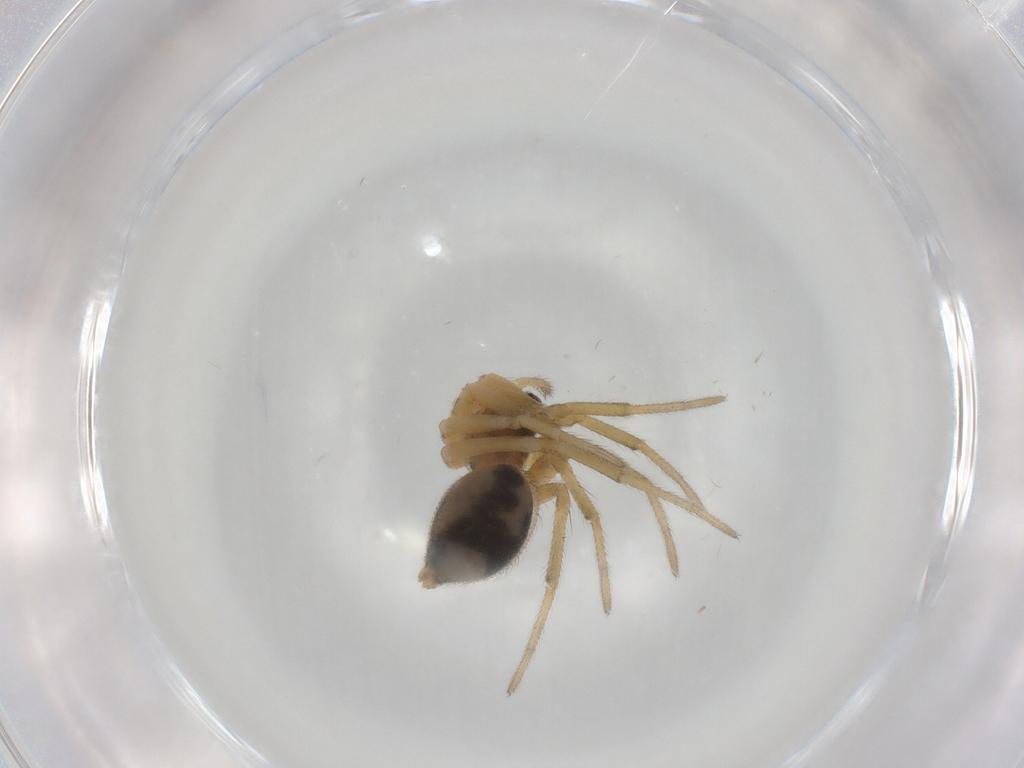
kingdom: Animalia
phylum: Arthropoda
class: Arachnida
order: Araneae
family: Linyphiidae
